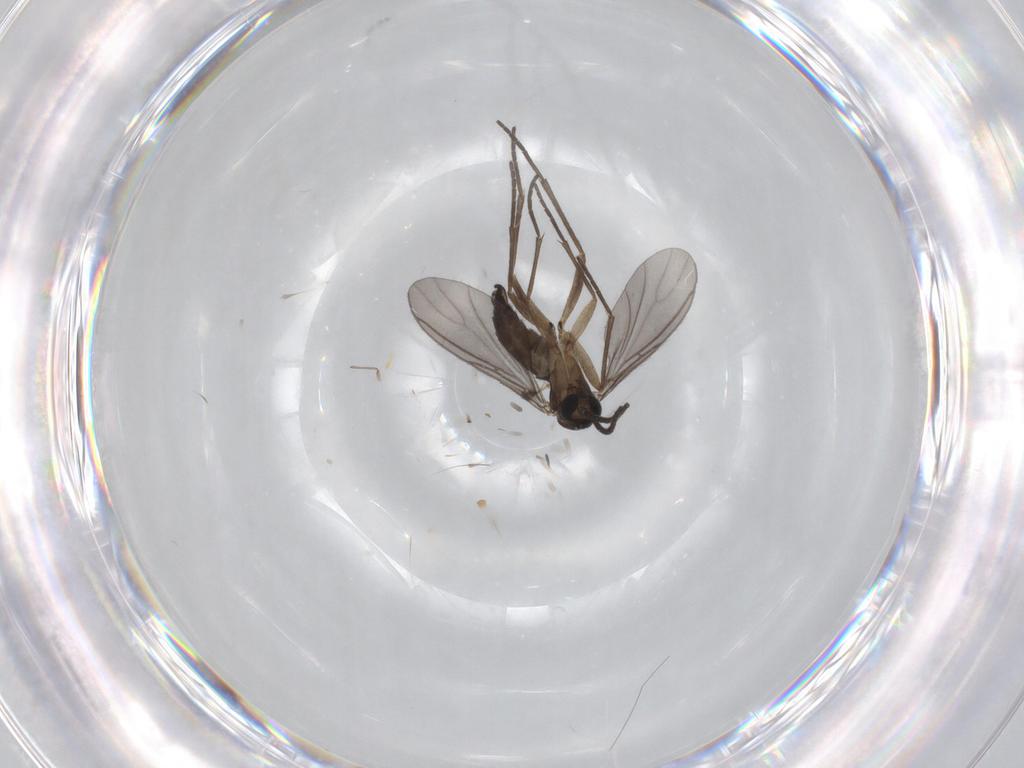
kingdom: Animalia
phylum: Arthropoda
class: Insecta
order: Diptera
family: Sciaridae
